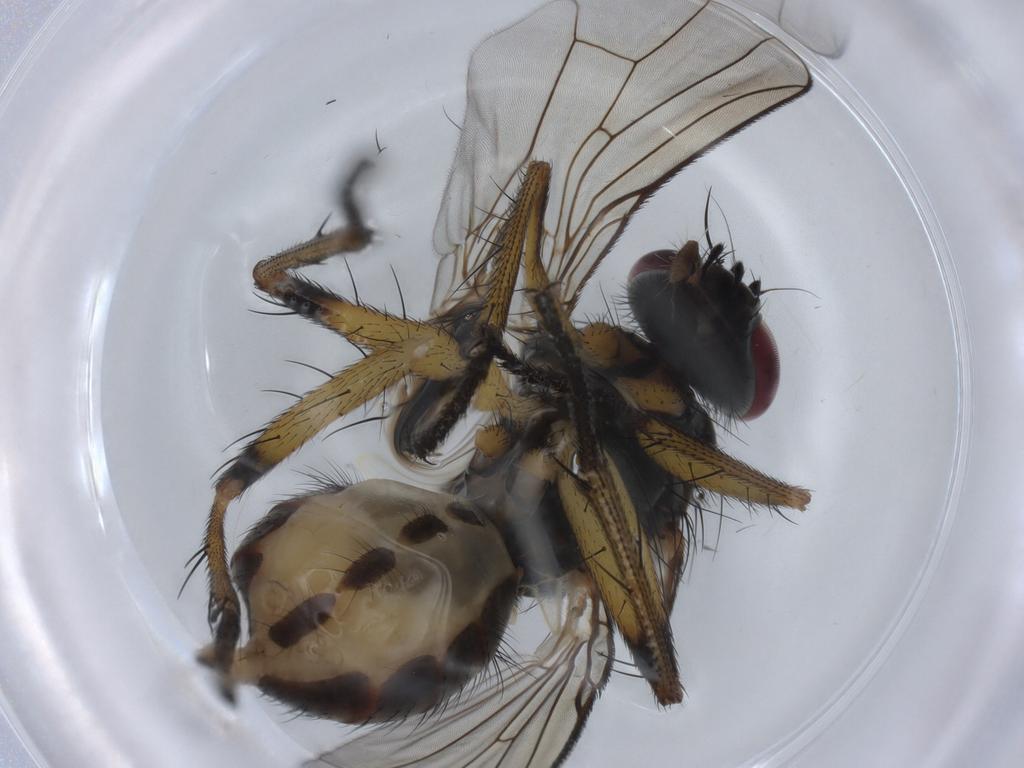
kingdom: Animalia
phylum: Arthropoda
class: Insecta
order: Diptera
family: Mycetophilidae
